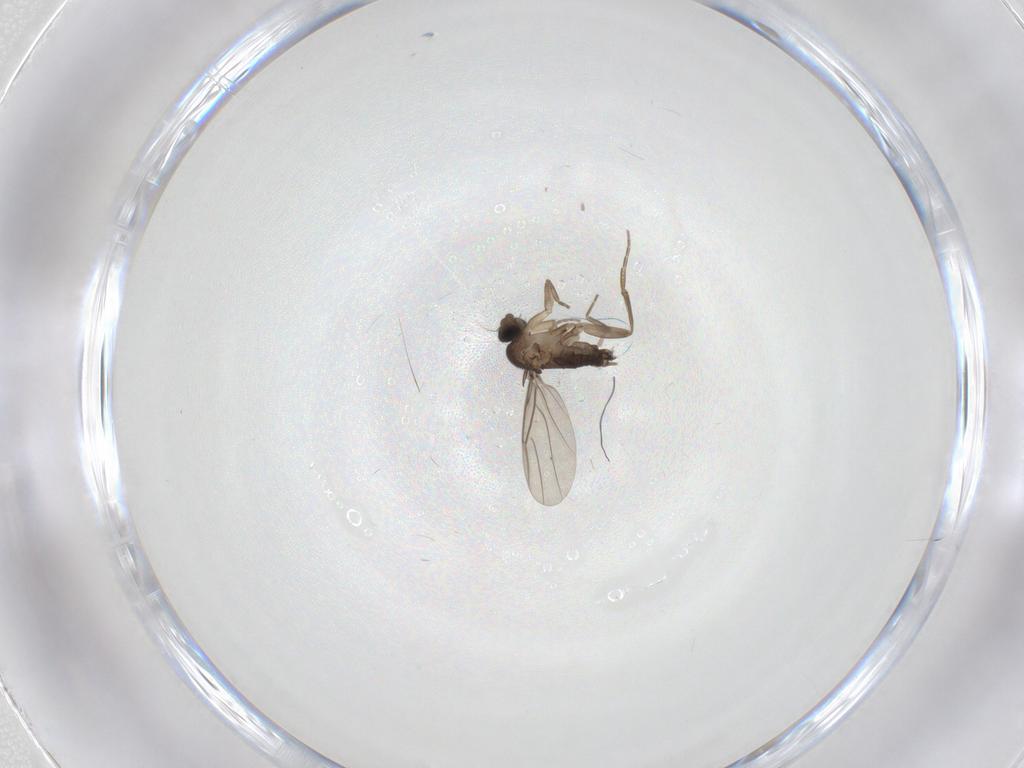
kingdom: Animalia
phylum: Arthropoda
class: Insecta
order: Diptera
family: Phoridae
